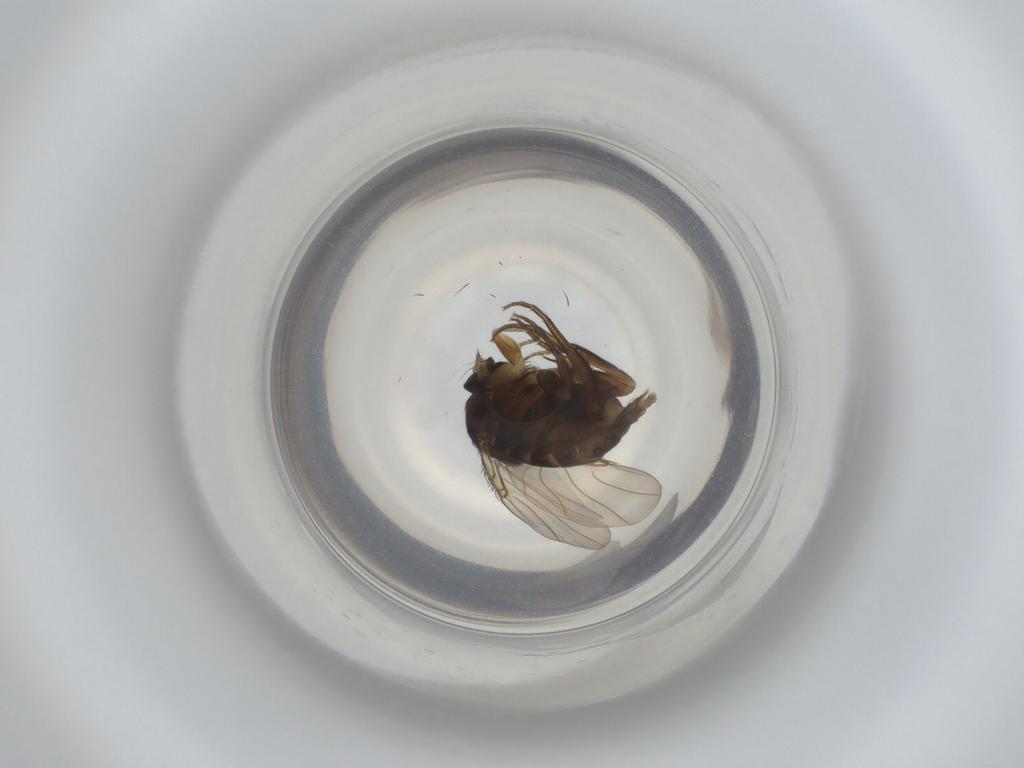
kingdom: Animalia
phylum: Arthropoda
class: Insecta
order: Diptera
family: Phoridae
